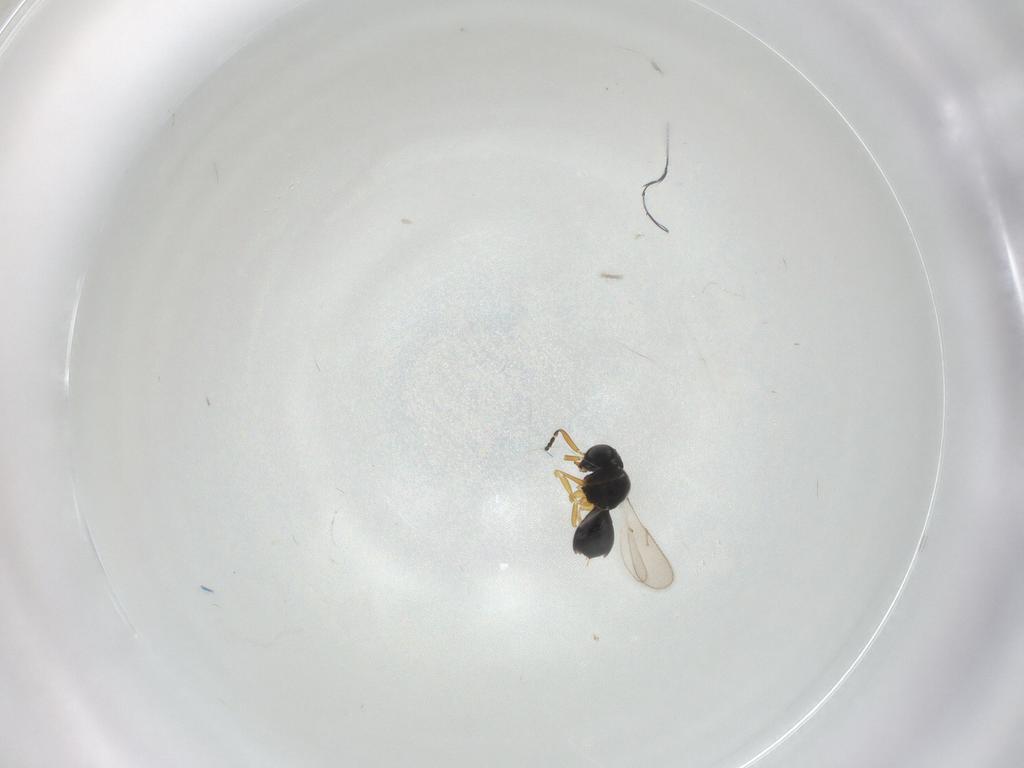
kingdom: Animalia
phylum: Arthropoda
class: Insecta
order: Hymenoptera
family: Scelionidae
